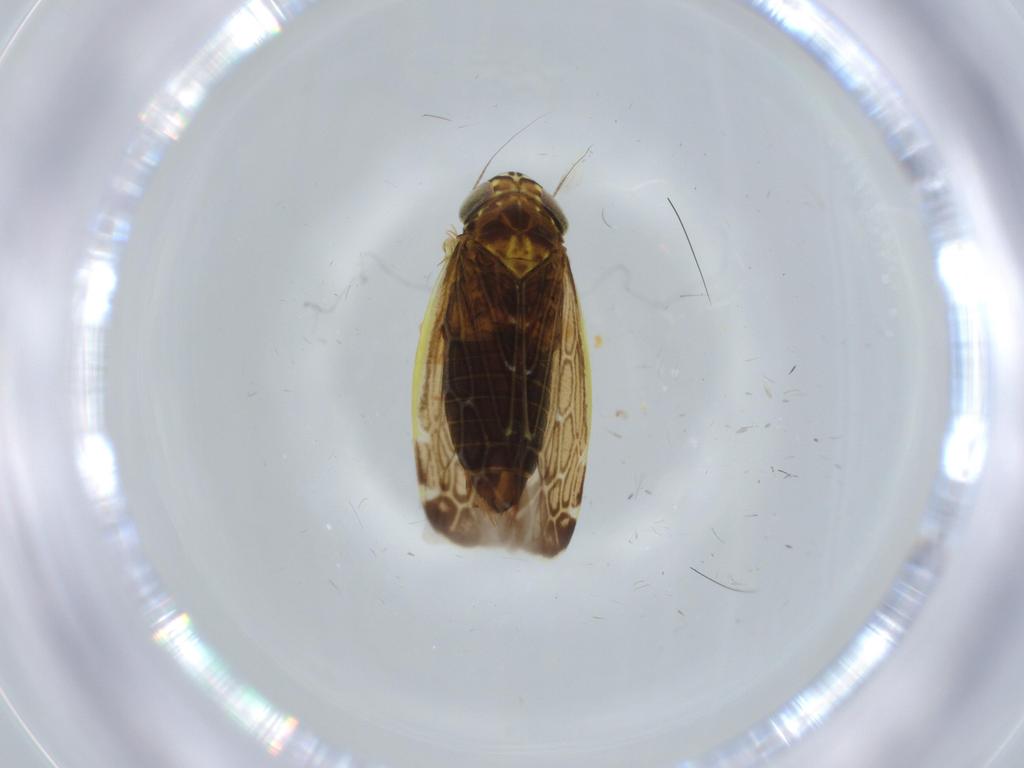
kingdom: Animalia
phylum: Arthropoda
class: Insecta
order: Hemiptera
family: Cicadellidae
